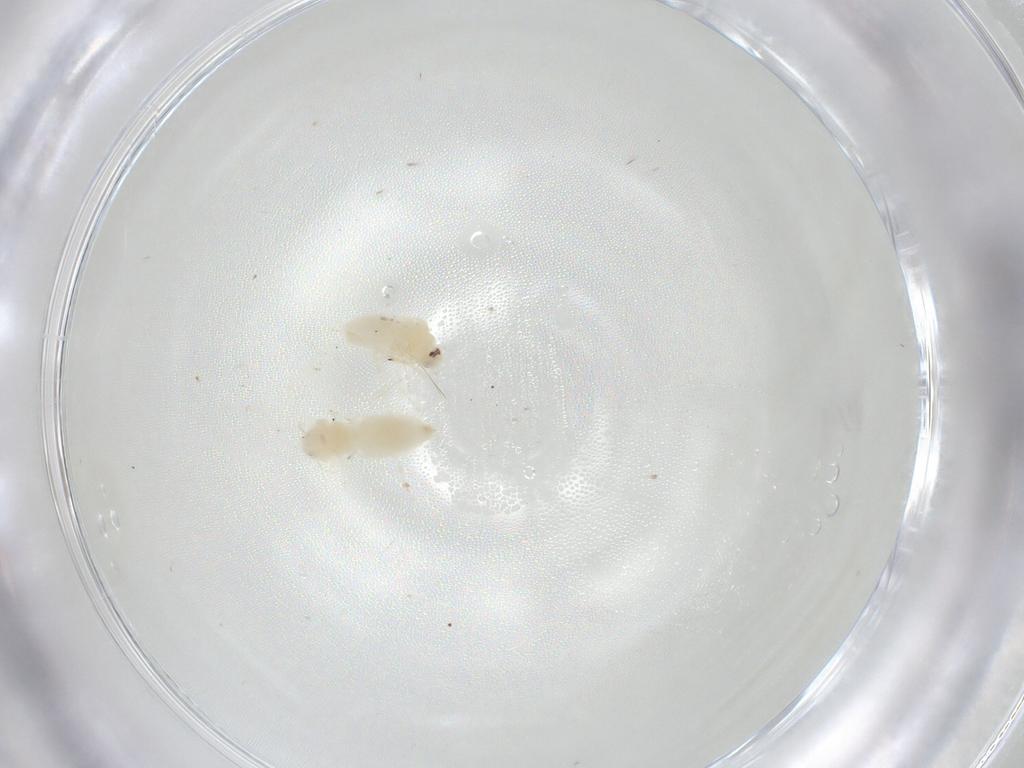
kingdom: Animalia
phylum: Arthropoda
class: Insecta
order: Hemiptera
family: Aleyrodidae
